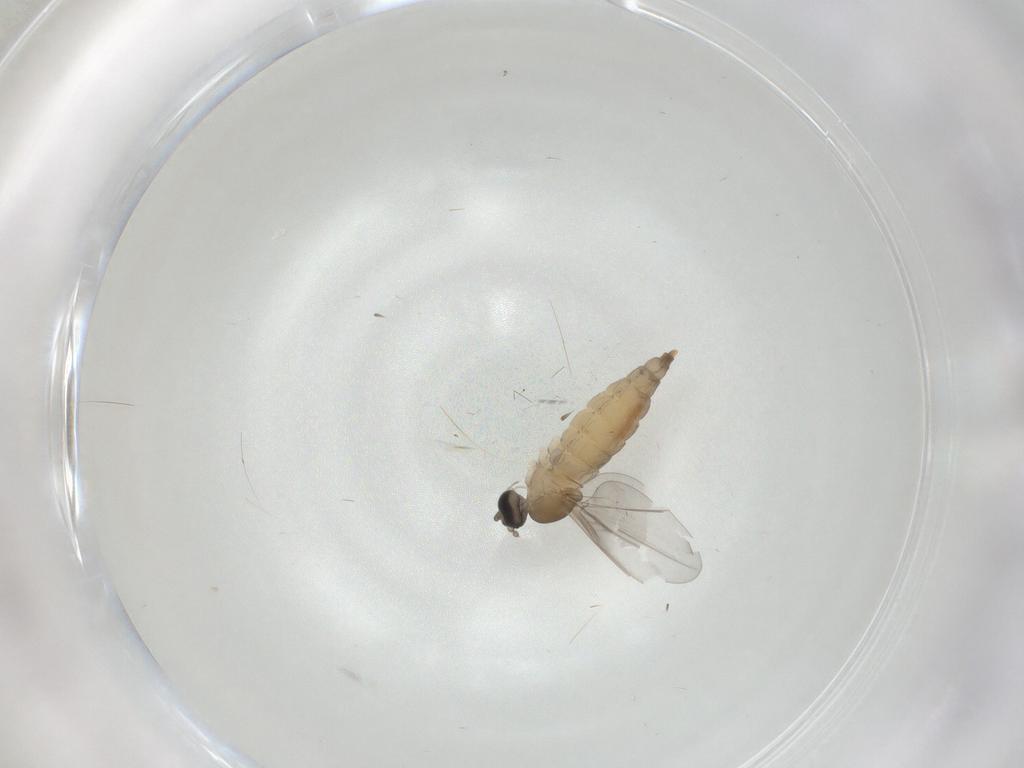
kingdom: Animalia
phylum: Arthropoda
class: Insecta
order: Diptera
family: Cecidomyiidae
